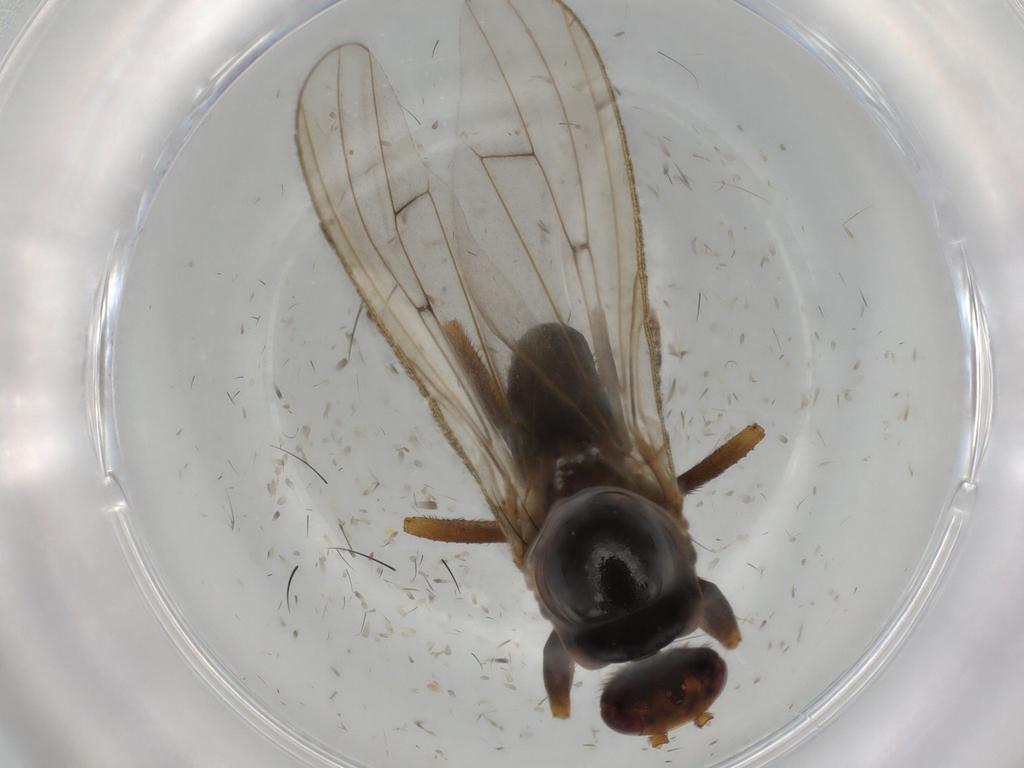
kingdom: Animalia
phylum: Arthropoda
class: Insecta
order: Diptera
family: Heleomyzidae
